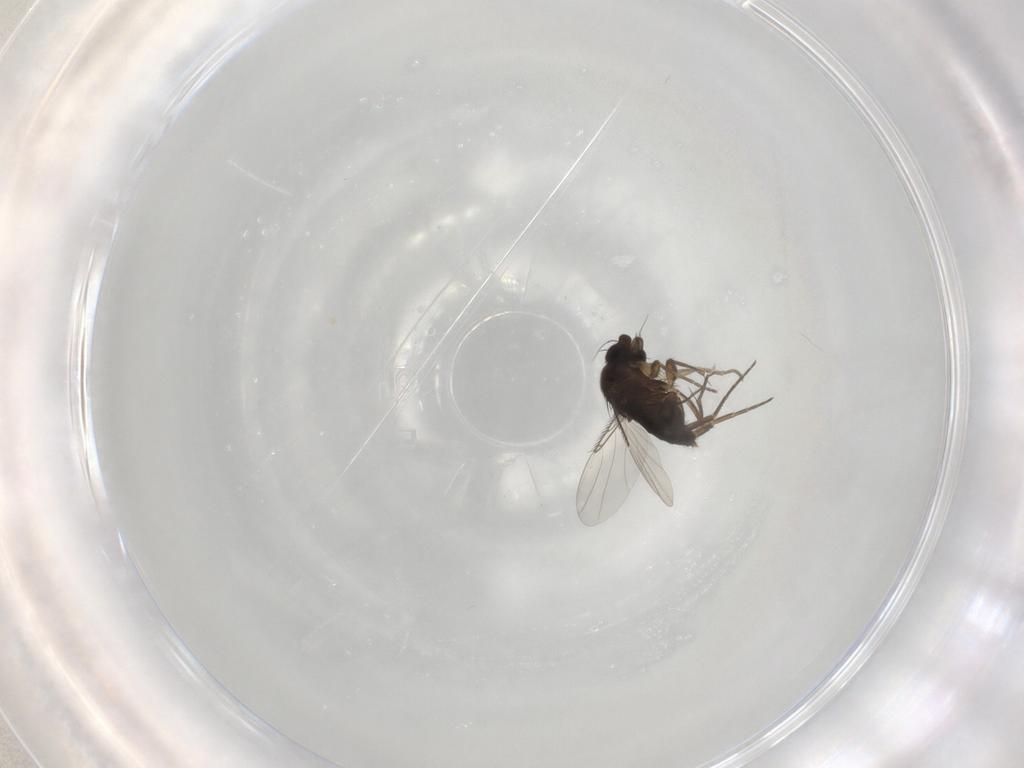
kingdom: Animalia
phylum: Arthropoda
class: Insecta
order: Diptera
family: Phoridae
